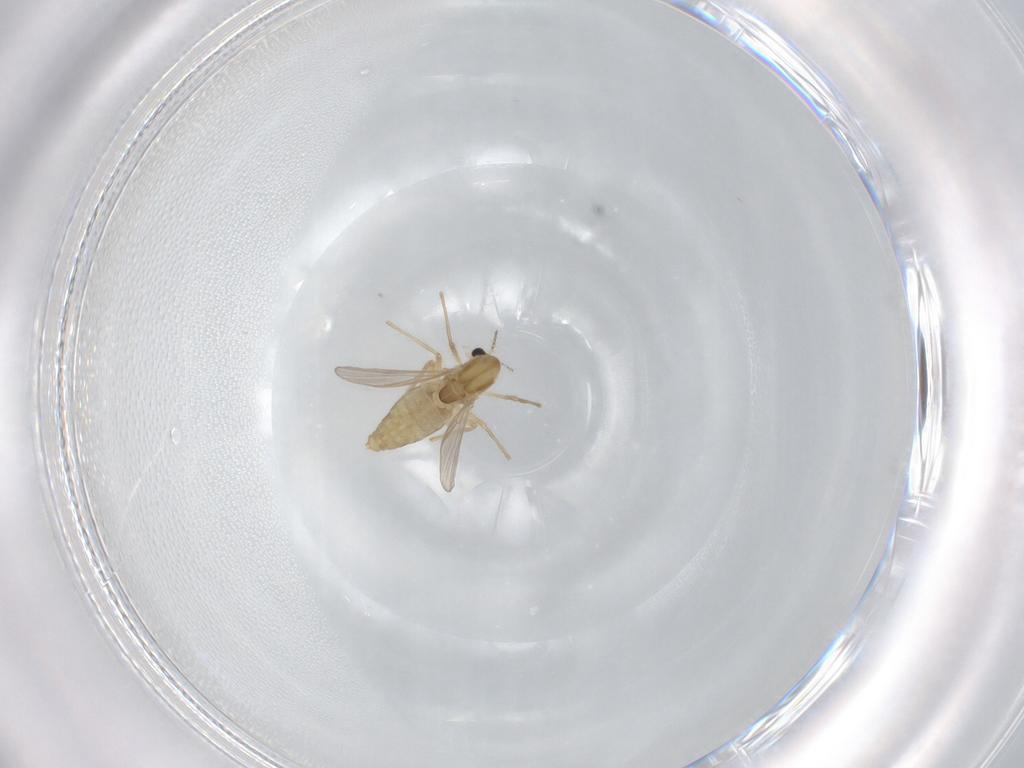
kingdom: Animalia
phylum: Arthropoda
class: Insecta
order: Diptera
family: Chironomidae
